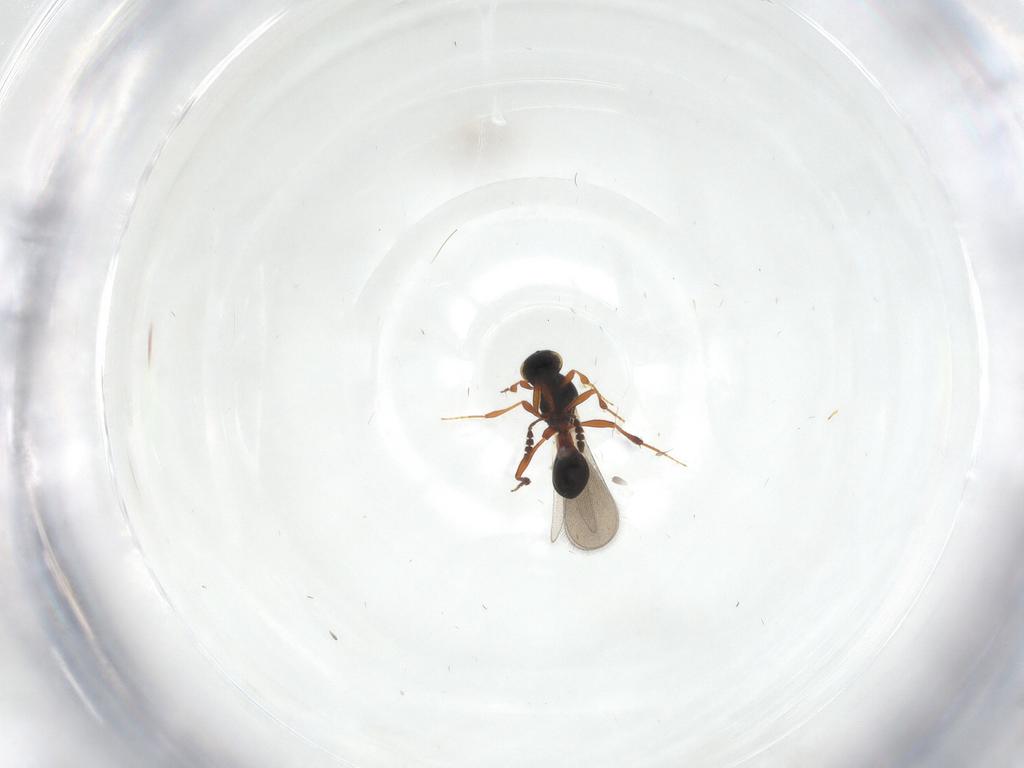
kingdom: Animalia
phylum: Arthropoda
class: Insecta
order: Hymenoptera
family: Platygastridae
